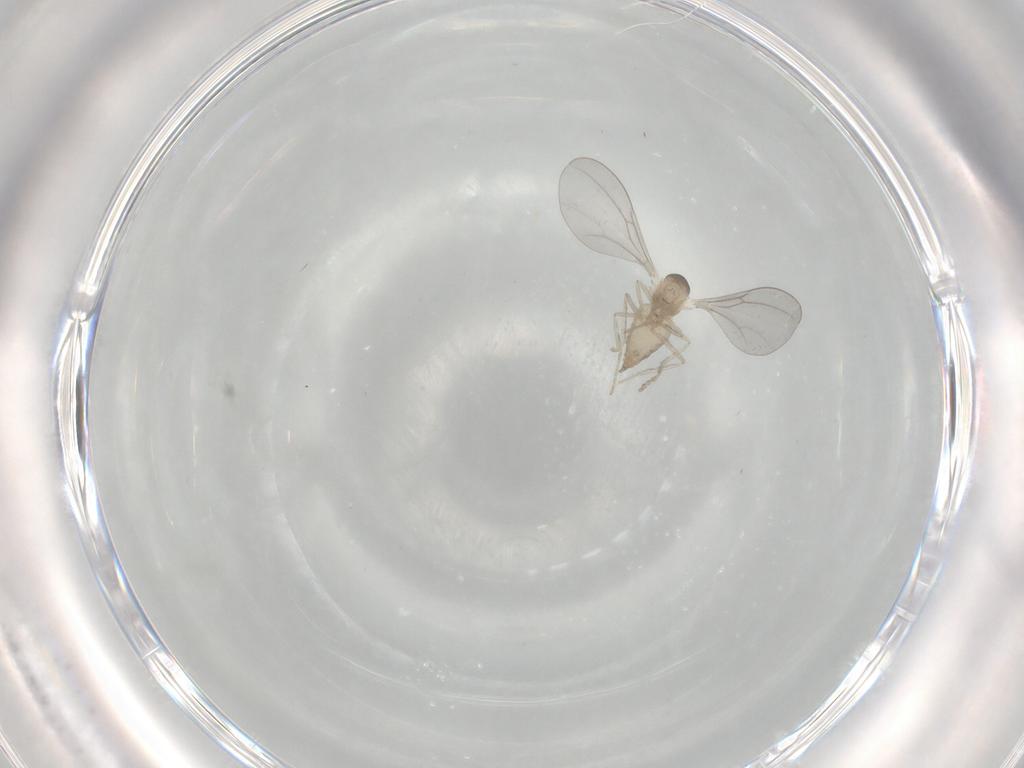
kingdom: Animalia
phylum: Arthropoda
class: Insecta
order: Diptera
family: Cecidomyiidae
